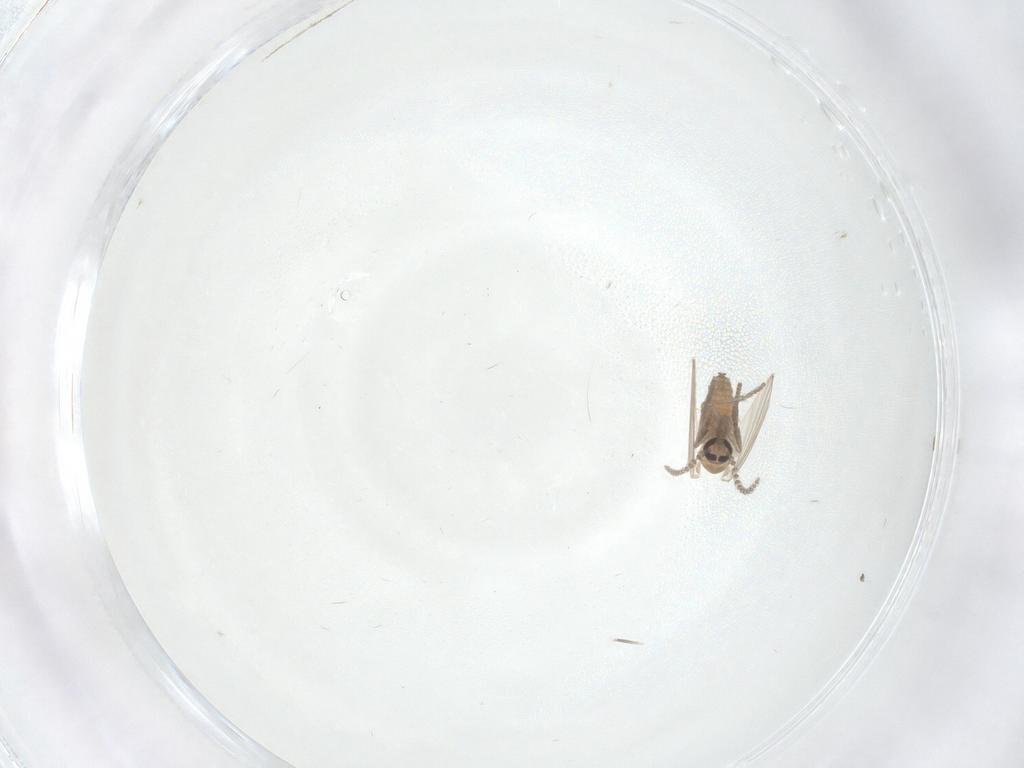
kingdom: Animalia
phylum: Arthropoda
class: Insecta
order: Diptera
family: Psychodidae
